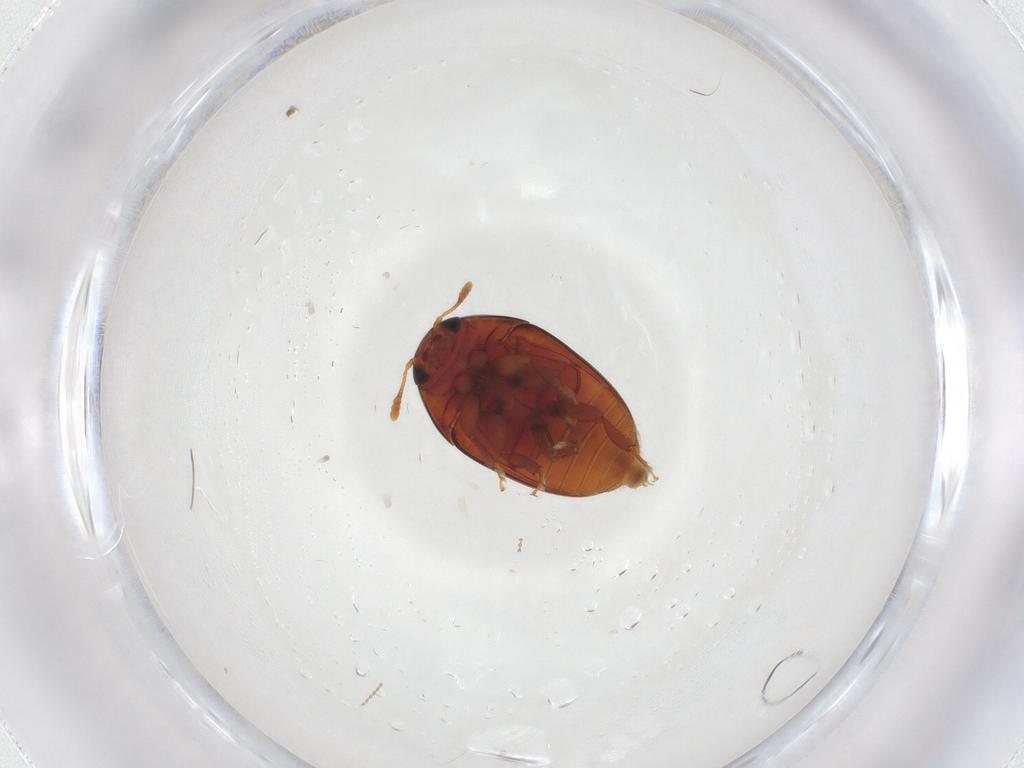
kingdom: Animalia
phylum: Arthropoda
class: Insecta
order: Coleoptera
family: Phalacridae
